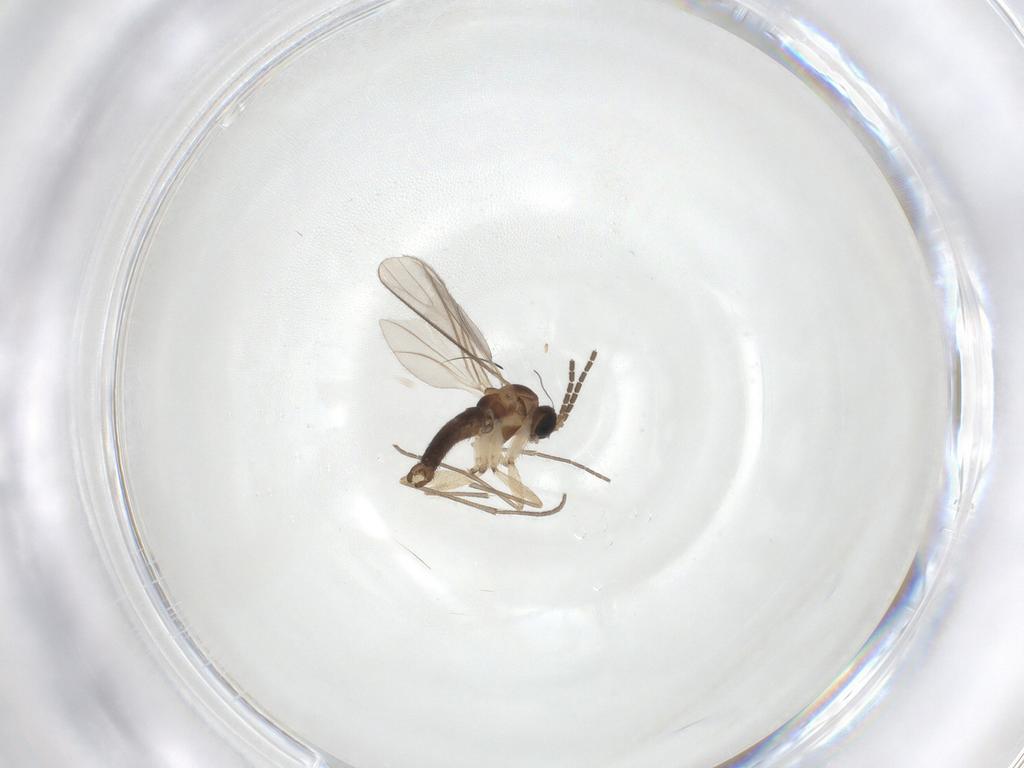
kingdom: Animalia
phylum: Arthropoda
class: Insecta
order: Diptera
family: Sciaridae
